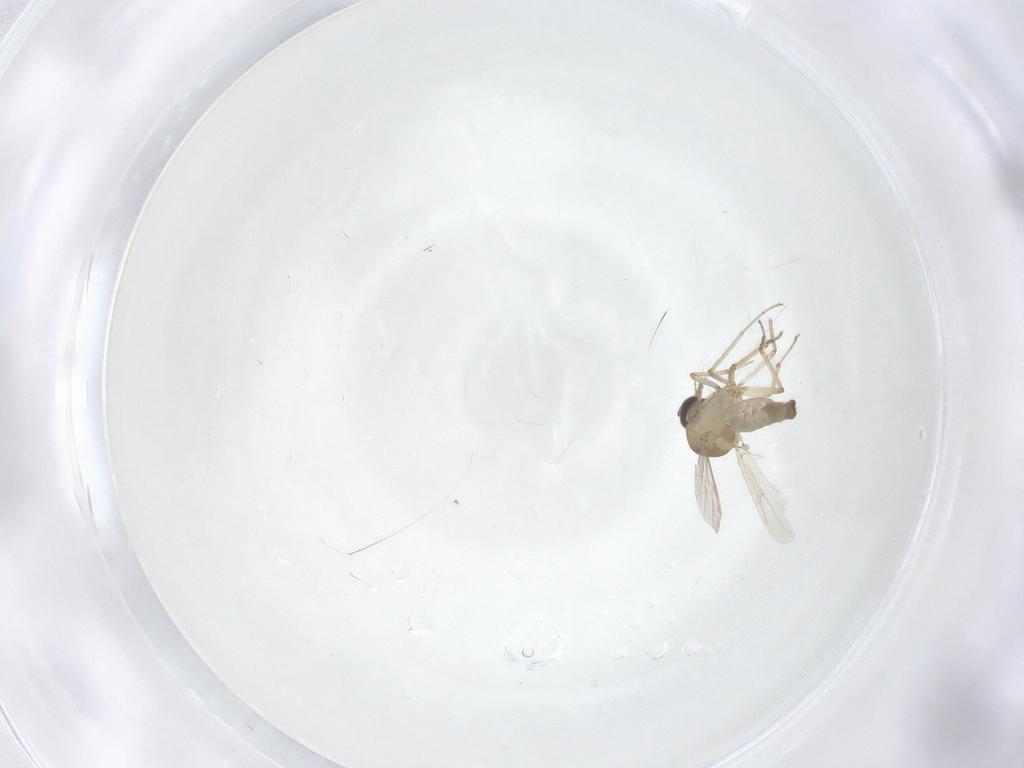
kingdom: Animalia
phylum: Arthropoda
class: Insecta
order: Diptera
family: Ceratopogonidae
